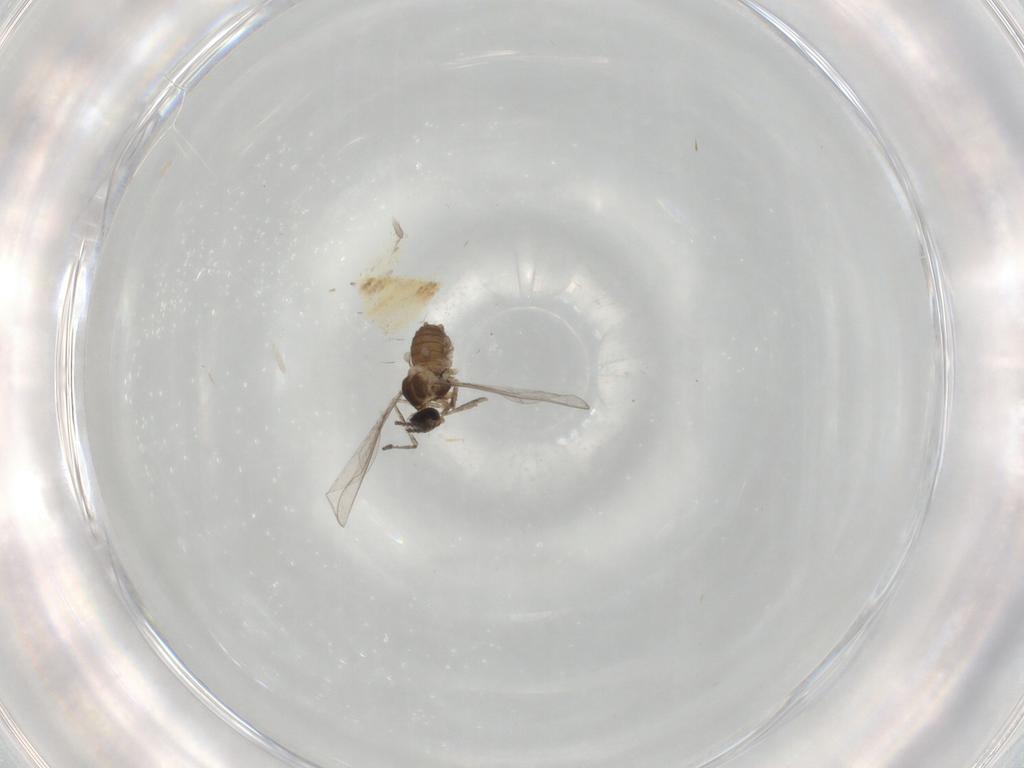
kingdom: Animalia
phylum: Arthropoda
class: Insecta
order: Diptera
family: Cecidomyiidae
